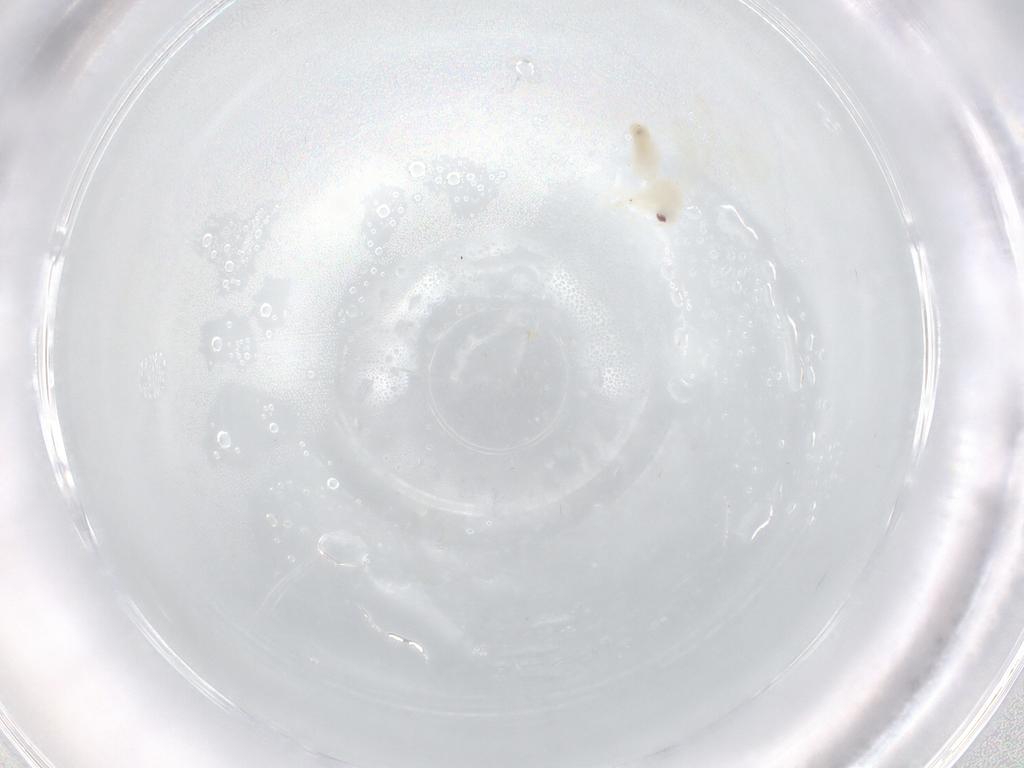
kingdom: Animalia
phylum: Arthropoda
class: Insecta
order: Hemiptera
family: Aleyrodidae
